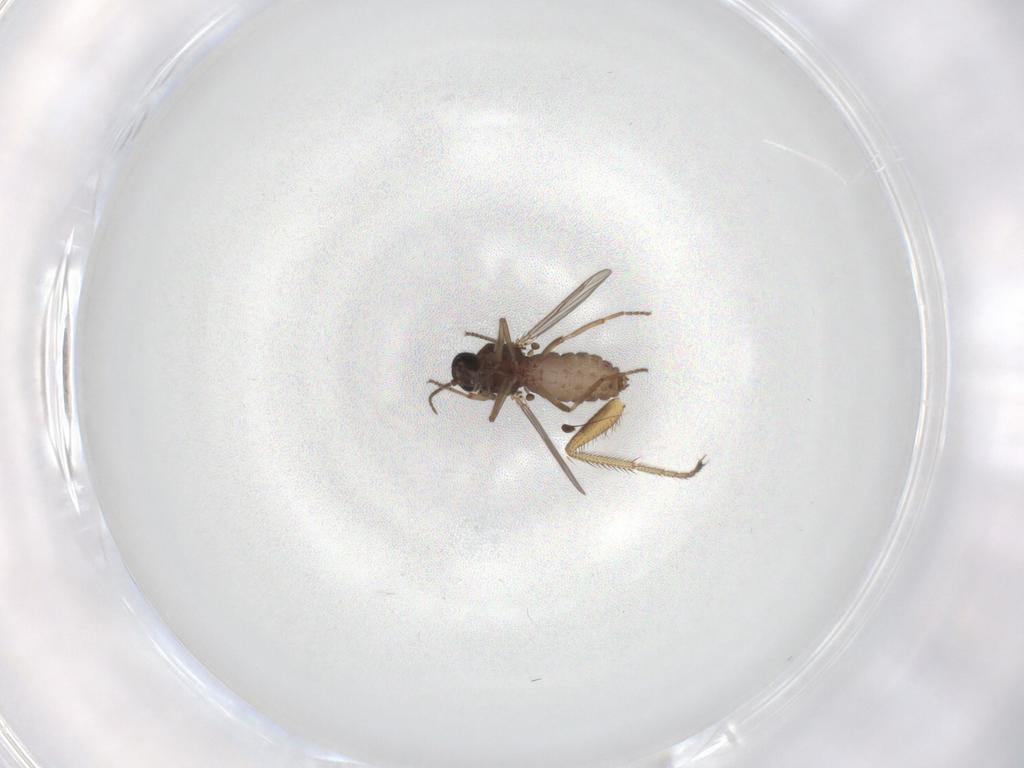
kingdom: Animalia
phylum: Arthropoda
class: Insecta
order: Diptera
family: Ceratopogonidae
